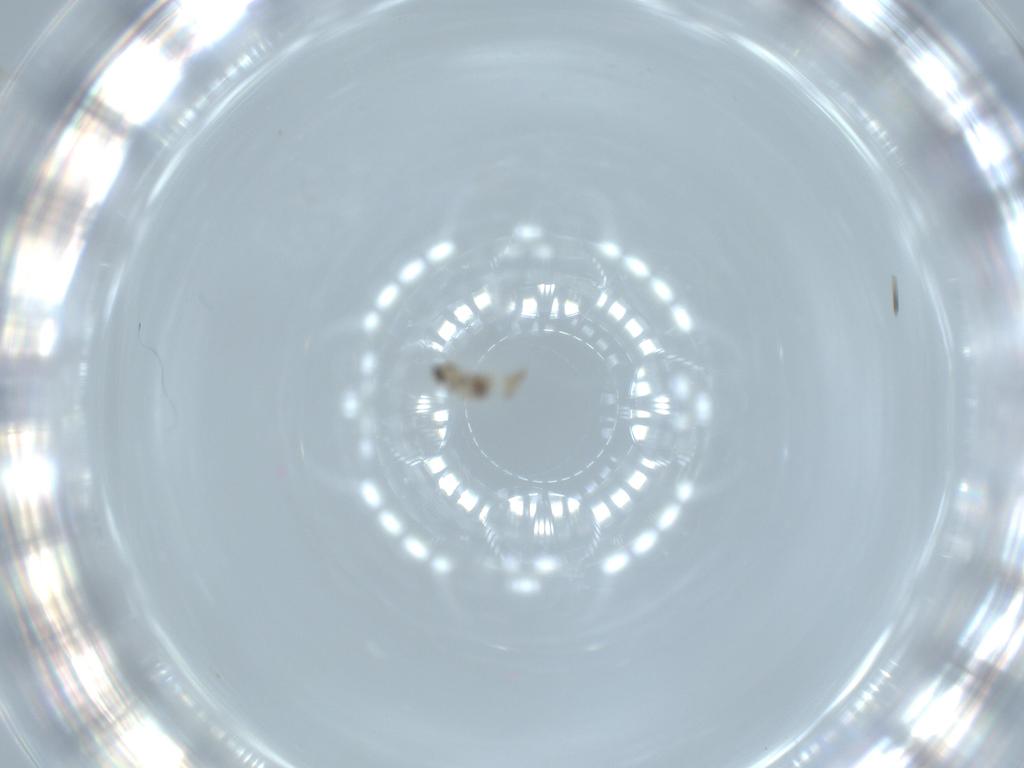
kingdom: Animalia
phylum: Arthropoda
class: Insecta
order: Diptera
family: Cecidomyiidae
